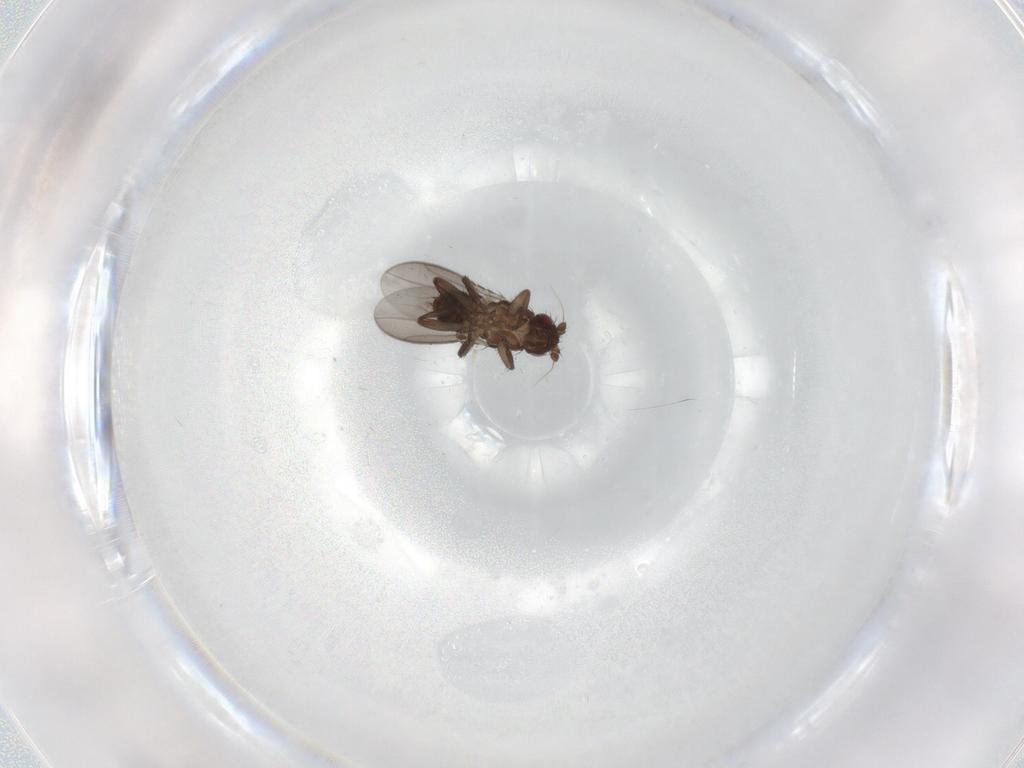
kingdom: Animalia
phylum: Arthropoda
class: Insecta
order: Diptera
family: Sphaeroceridae
